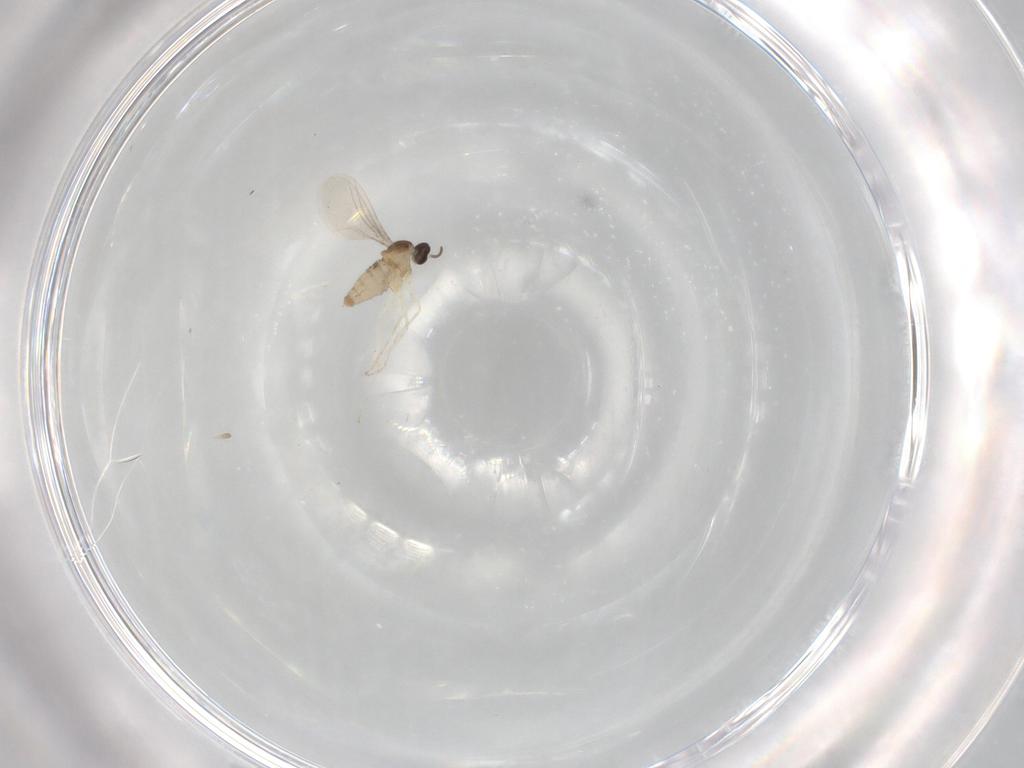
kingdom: Animalia
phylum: Arthropoda
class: Insecta
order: Diptera
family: Cecidomyiidae
